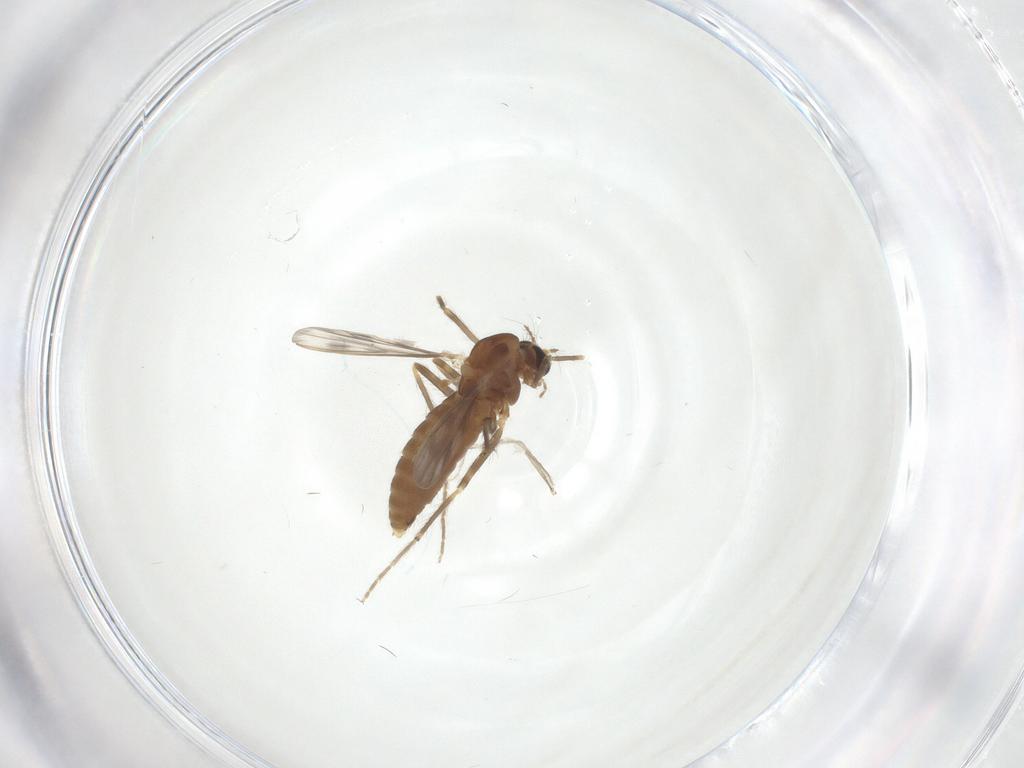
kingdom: Animalia
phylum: Arthropoda
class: Insecta
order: Diptera
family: Chironomidae
